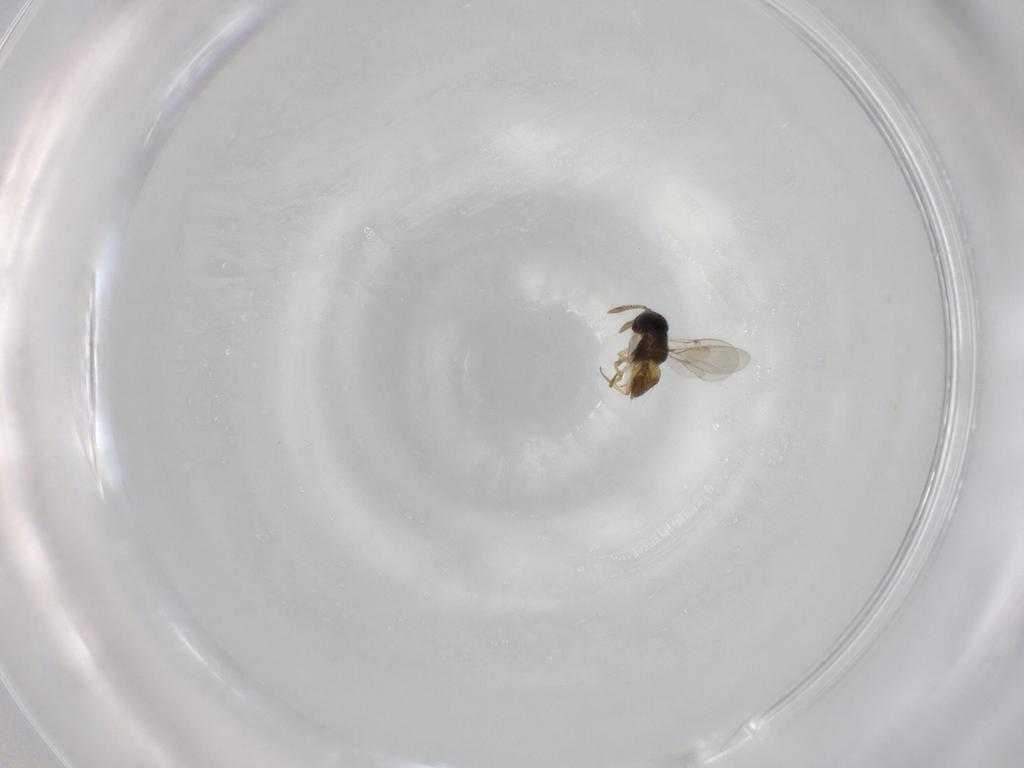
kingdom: Animalia
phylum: Arthropoda
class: Insecta
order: Hymenoptera
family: Encyrtidae
